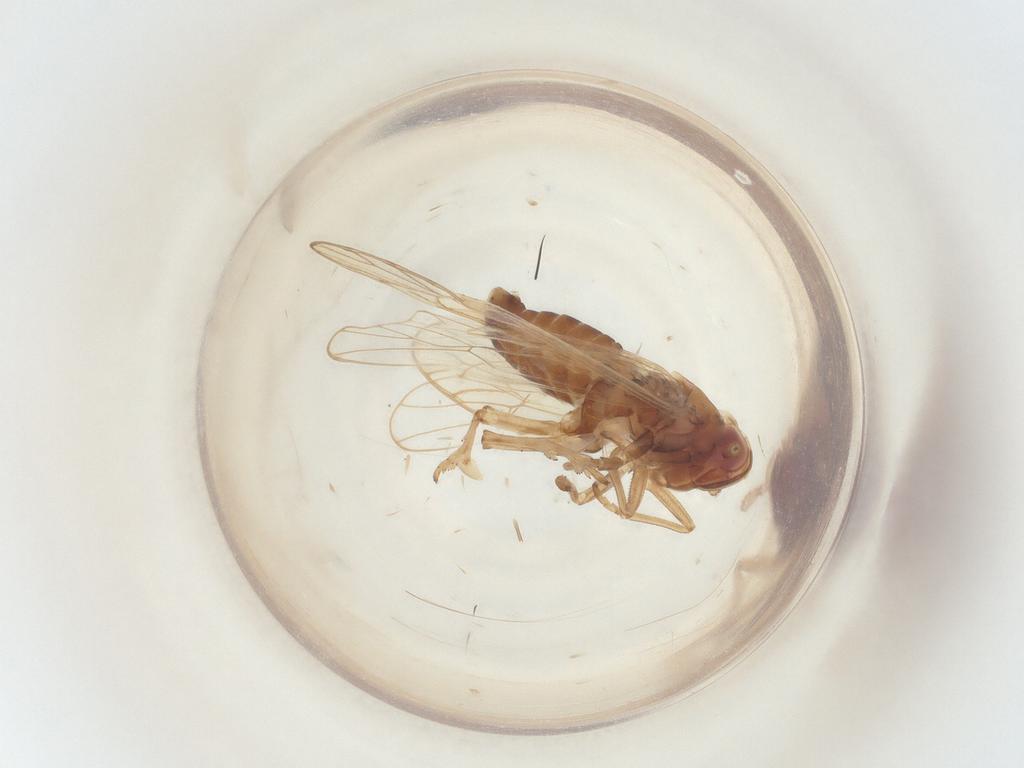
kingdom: Animalia
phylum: Arthropoda
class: Insecta
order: Hemiptera
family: Delphacidae
